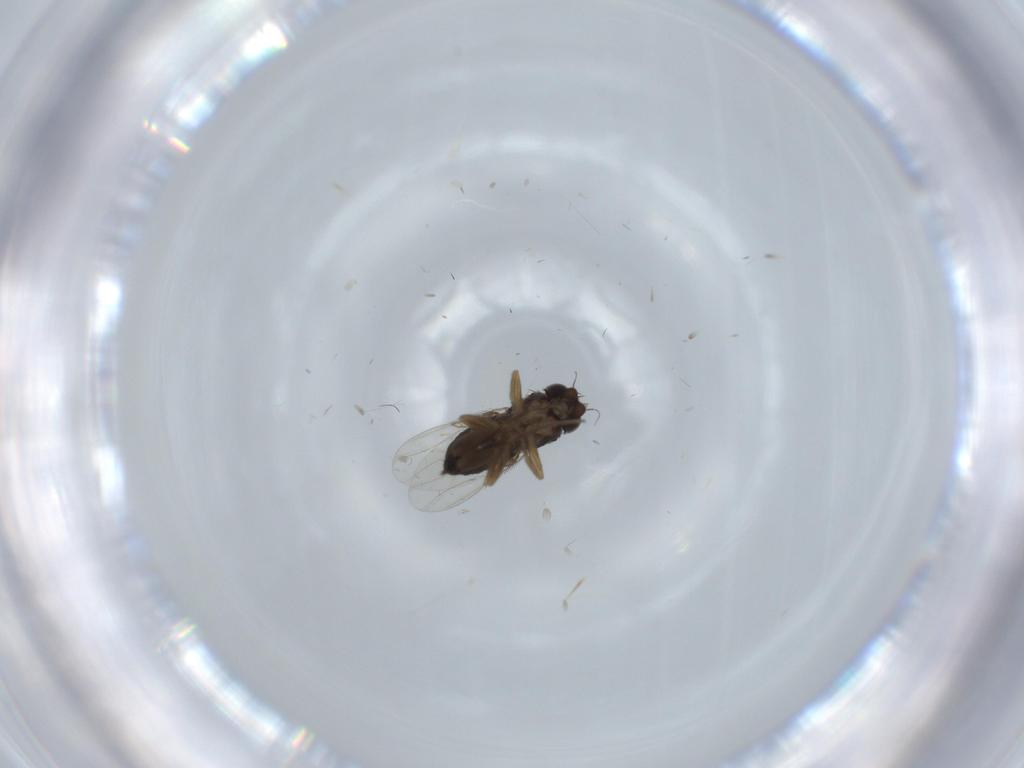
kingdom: Animalia
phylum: Arthropoda
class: Insecta
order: Diptera
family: Phoridae
